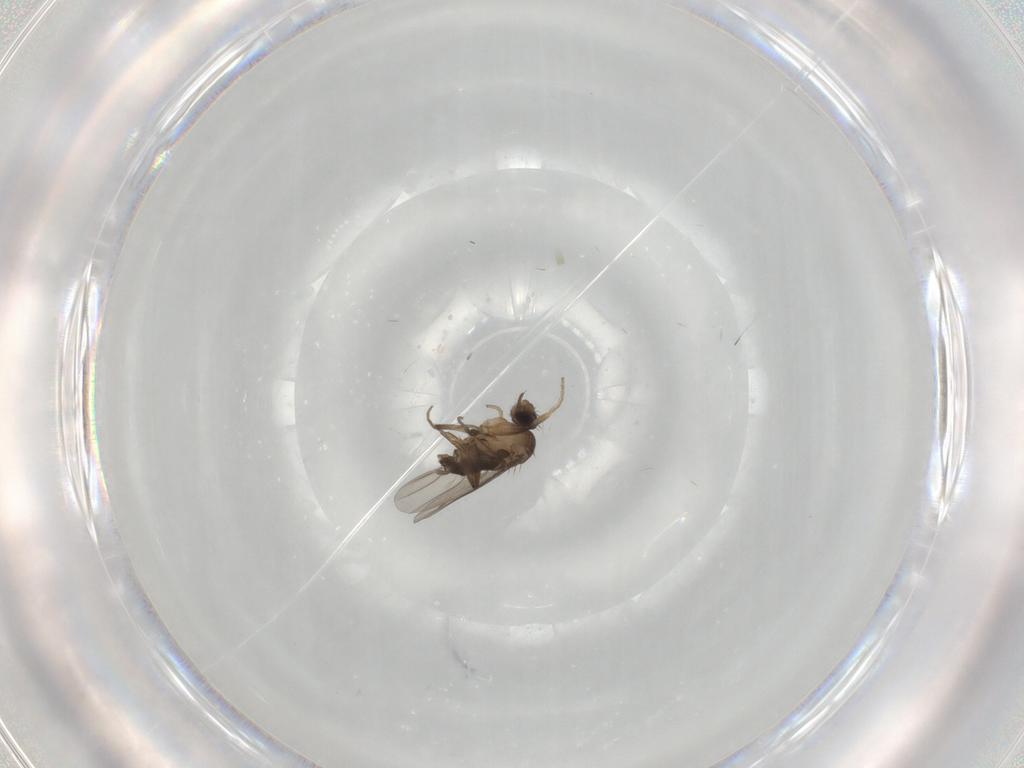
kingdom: Animalia
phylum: Arthropoda
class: Insecta
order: Diptera
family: Phoridae
